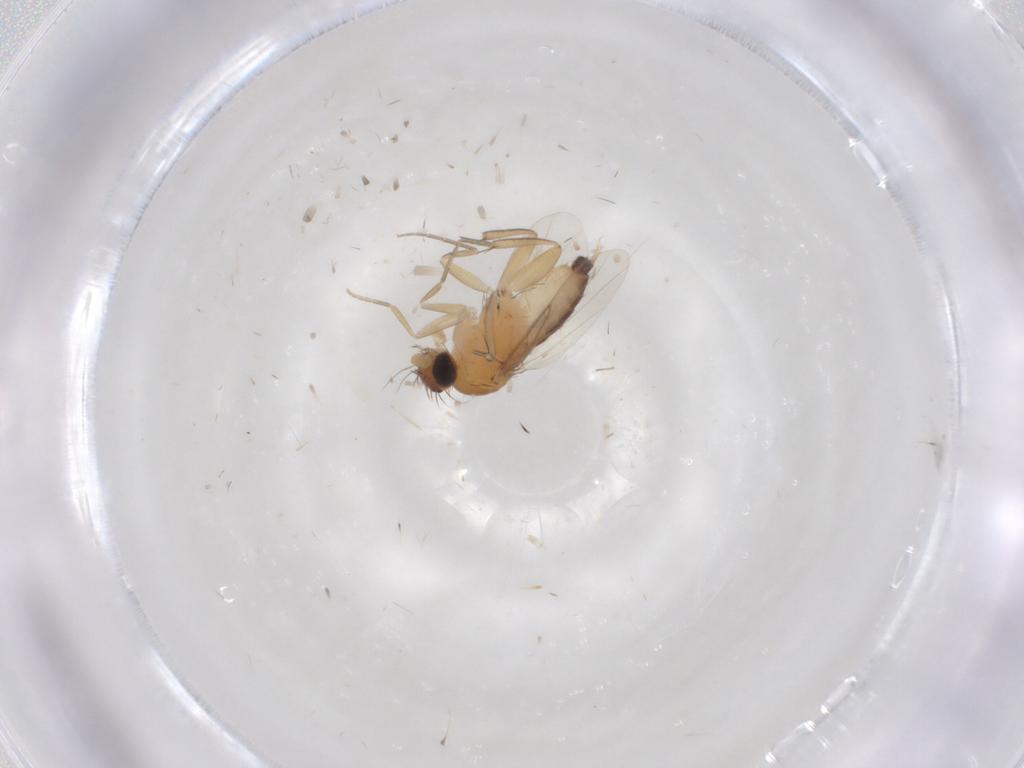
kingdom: Animalia
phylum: Arthropoda
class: Insecta
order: Diptera
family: Phoridae
